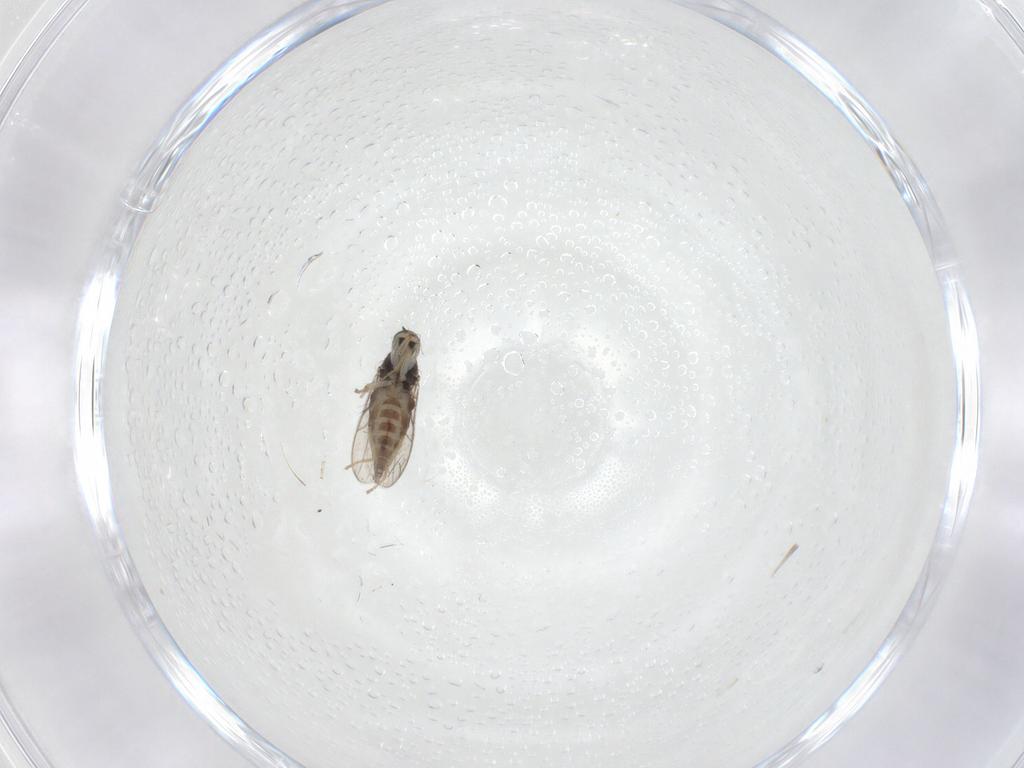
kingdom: Animalia
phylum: Arthropoda
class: Insecta
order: Diptera
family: Hybotidae
